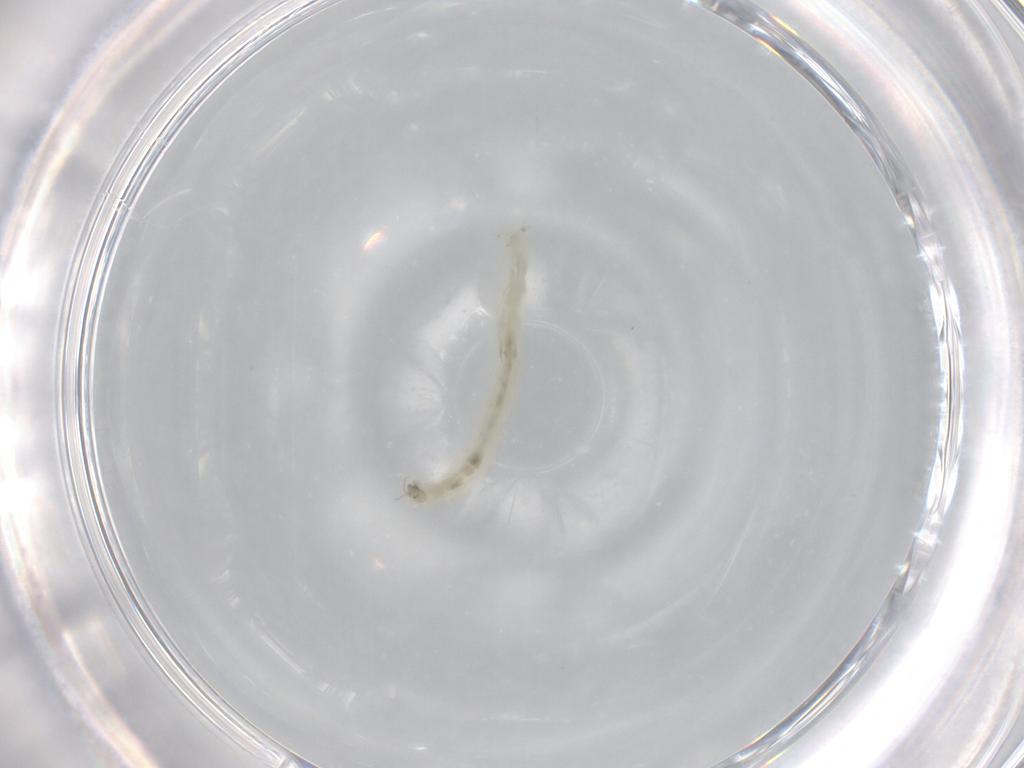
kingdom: Animalia
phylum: Arthropoda
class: Insecta
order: Diptera
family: Chironomidae
